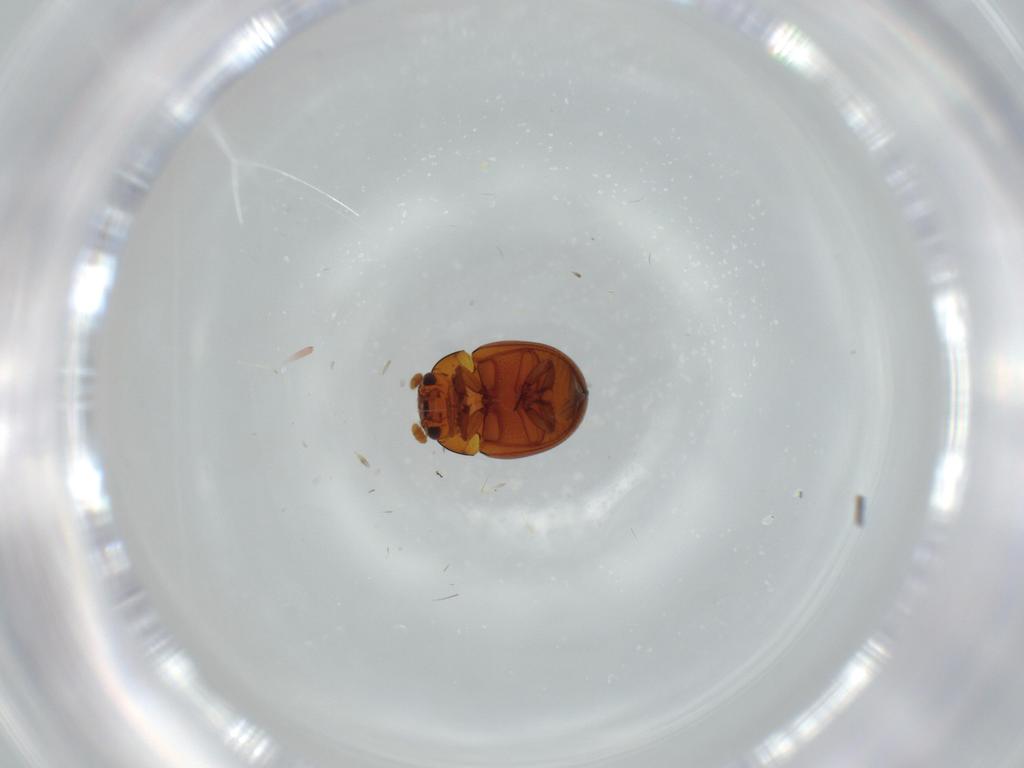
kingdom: Animalia
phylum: Arthropoda
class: Insecta
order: Coleoptera
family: Leiodidae
